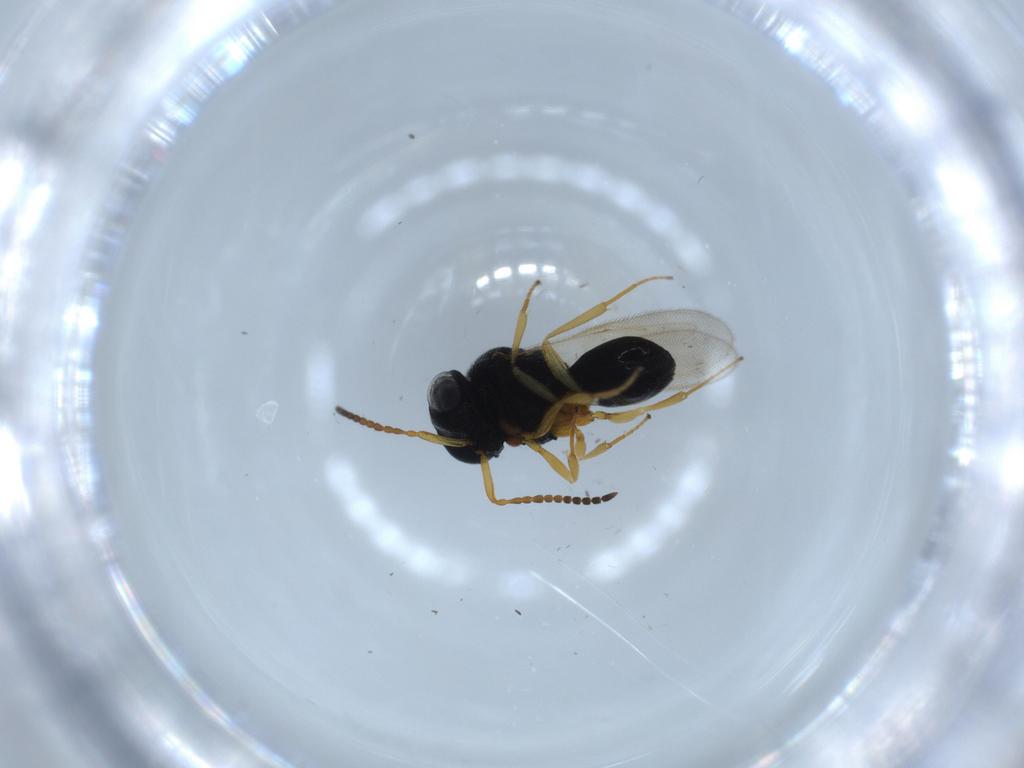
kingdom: Animalia
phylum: Arthropoda
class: Insecta
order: Hymenoptera
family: Scelionidae
